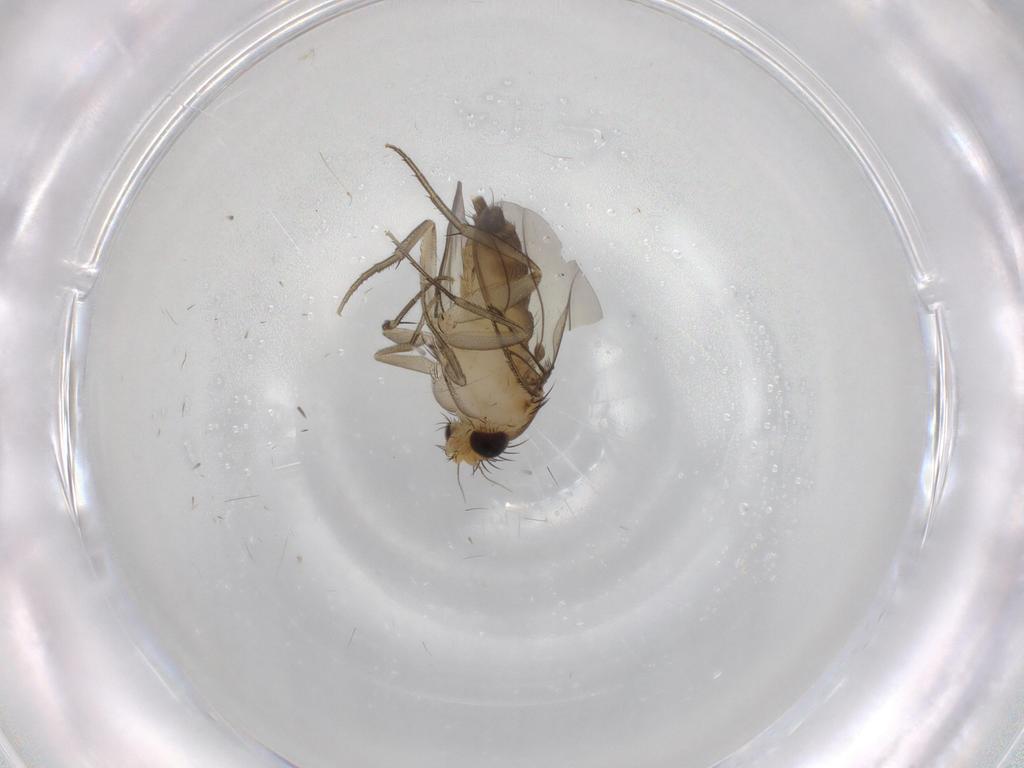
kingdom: Animalia
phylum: Arthropoda
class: Insecta
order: Diptera
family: Phoridae
